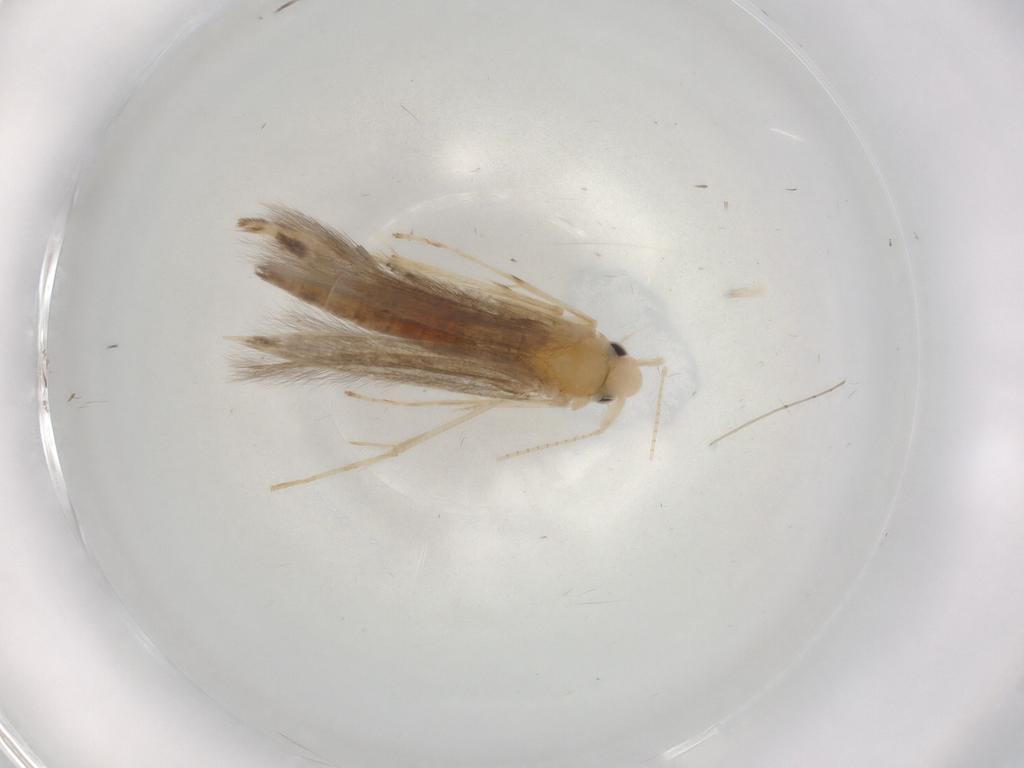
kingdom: Animalia
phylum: Arthropoda
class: Insecta
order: Lepidoptera
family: Lyonetiidae
